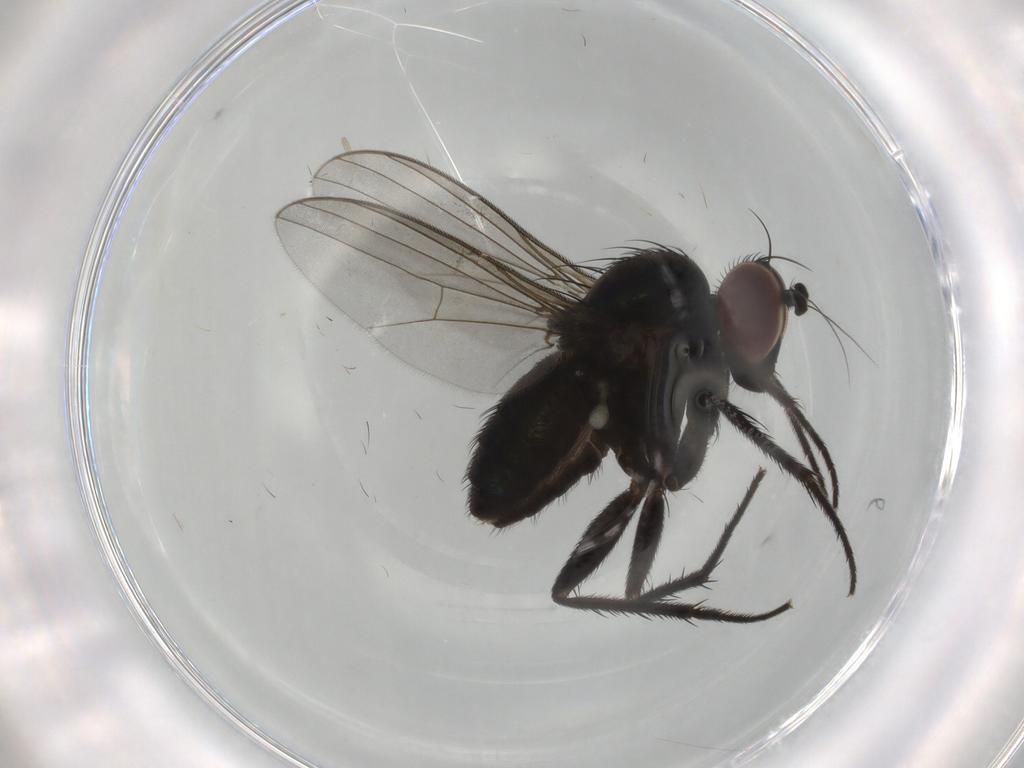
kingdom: Animalia
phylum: Arthropoda
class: Insecta
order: Diptera
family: Dolichopodidae
